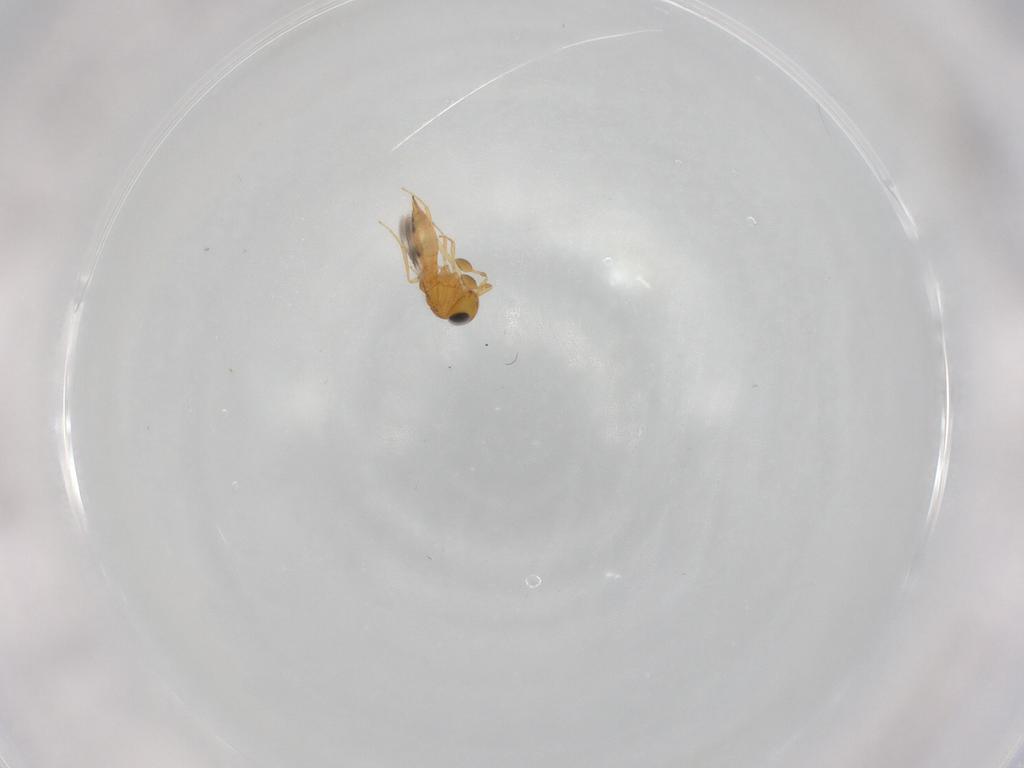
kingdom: Animalia
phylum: Arthropoda
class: Insecta
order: Hymenoptera
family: Scelionidae
